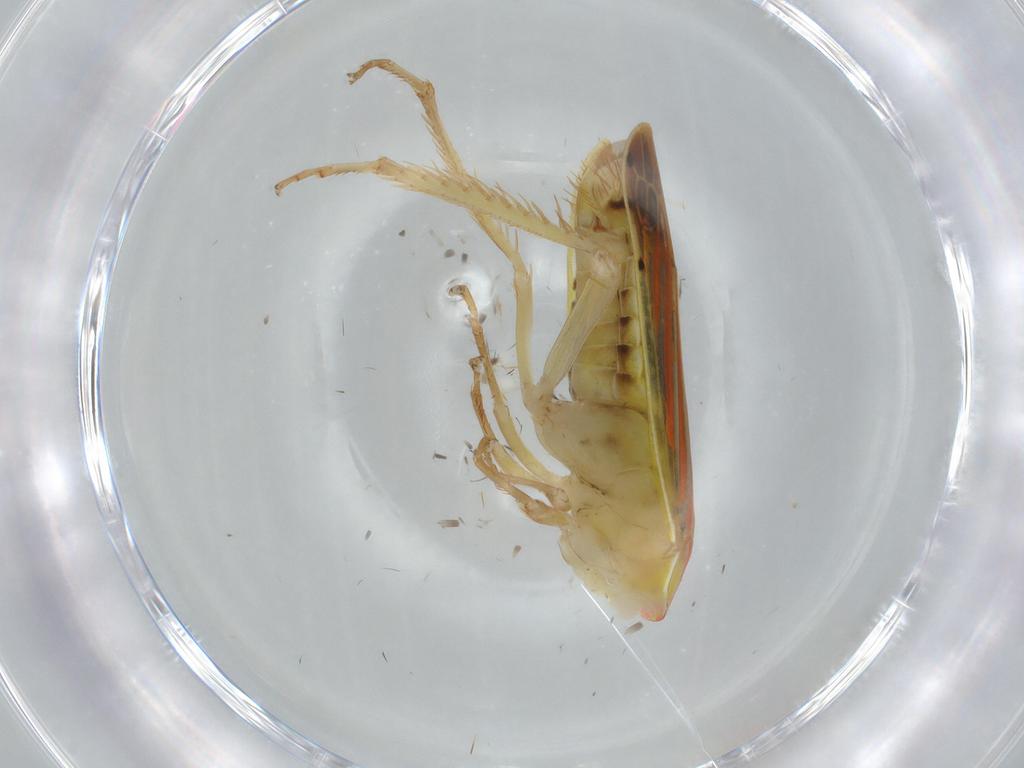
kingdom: Animalia
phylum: Arthropoda
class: Insecta
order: Hemiptera
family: Cicadellidae
